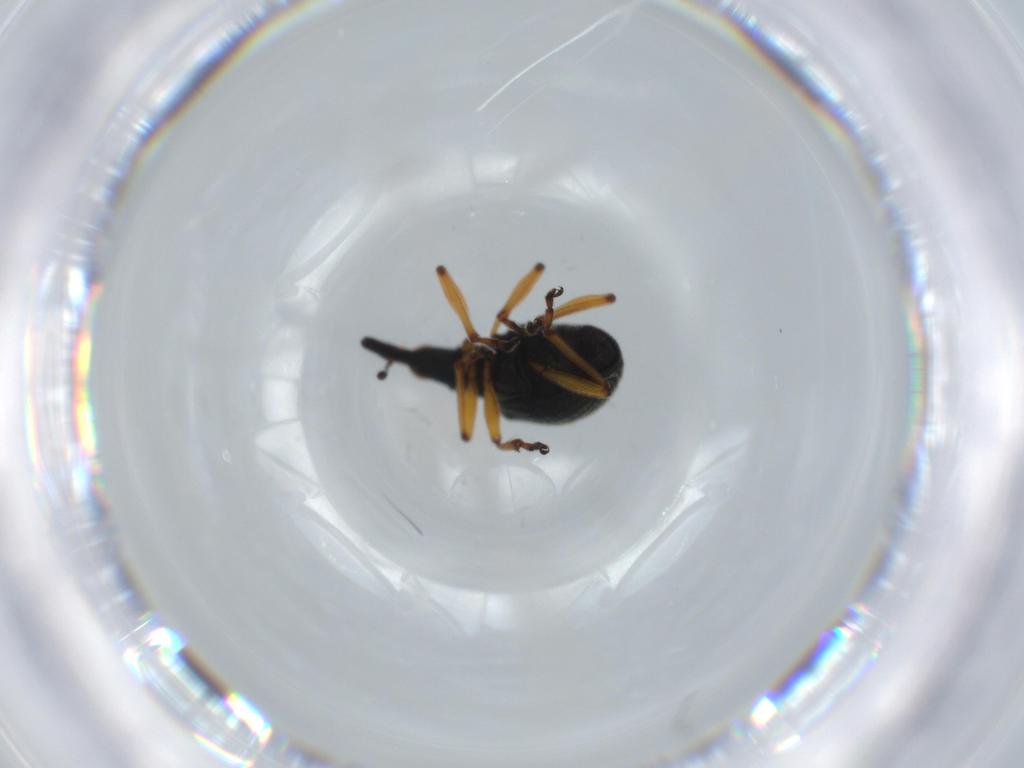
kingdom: Animalia
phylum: Arthropoda
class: Insecta
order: Coleoptera
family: Brentidae
